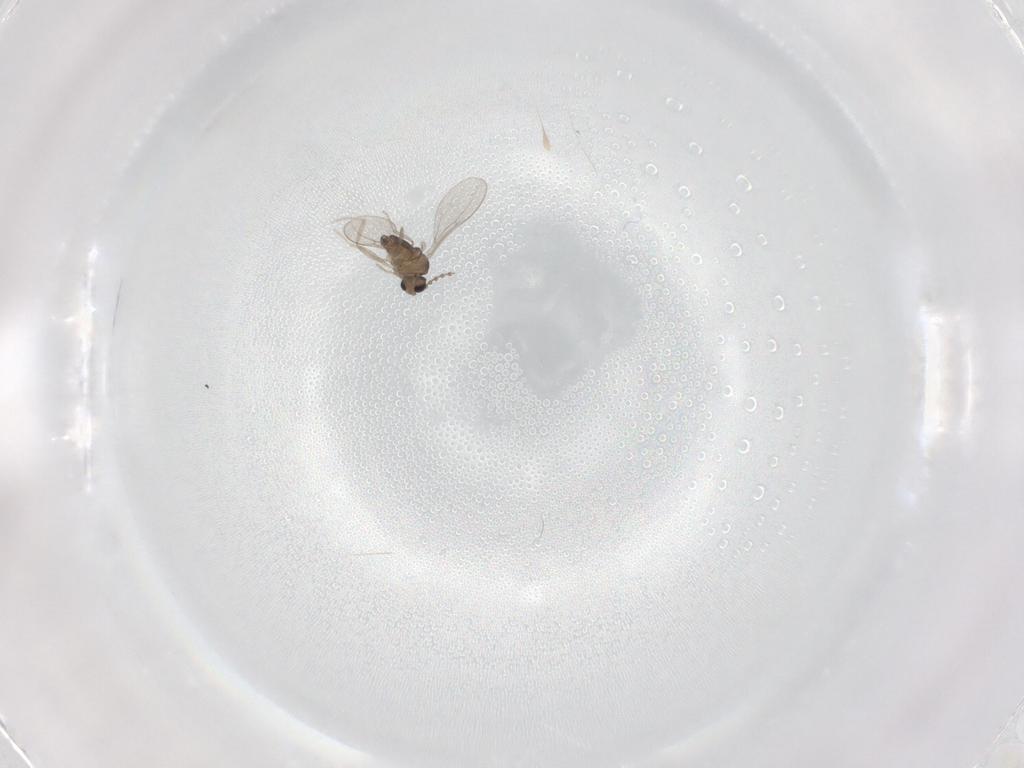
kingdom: Animalia
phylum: Arthropoda
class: Insecta
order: Diptera
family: Cecidomyiidae
